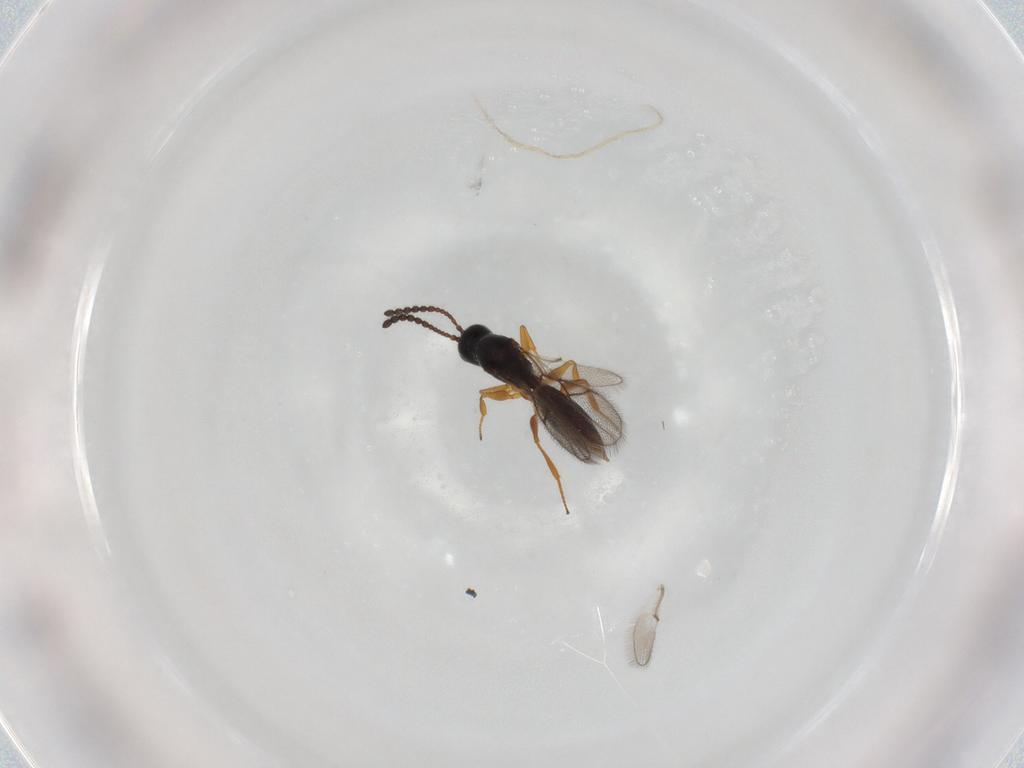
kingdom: Animalia
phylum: Arthropoda
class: Insecta
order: Hymenoptera
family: Figitidae
